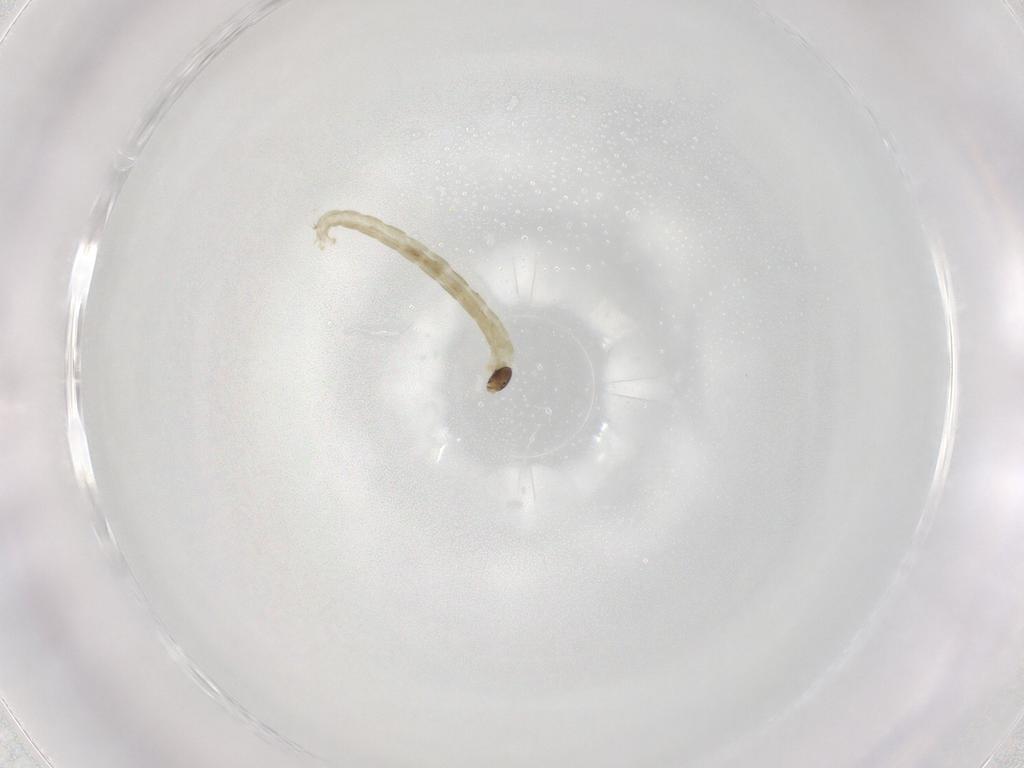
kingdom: Animalia
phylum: Arthropoda
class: Insecta
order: Diptera
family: Chironomidae
